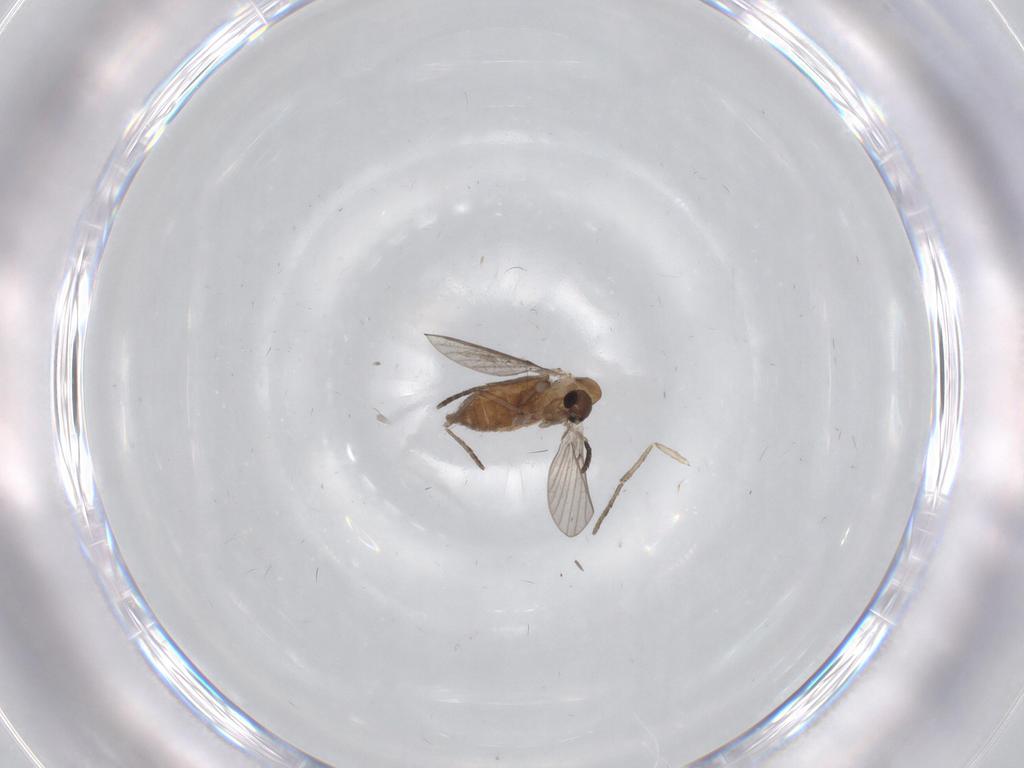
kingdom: Animalia
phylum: Arthropoda
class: Insecta
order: Diptera
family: Psychodidae
